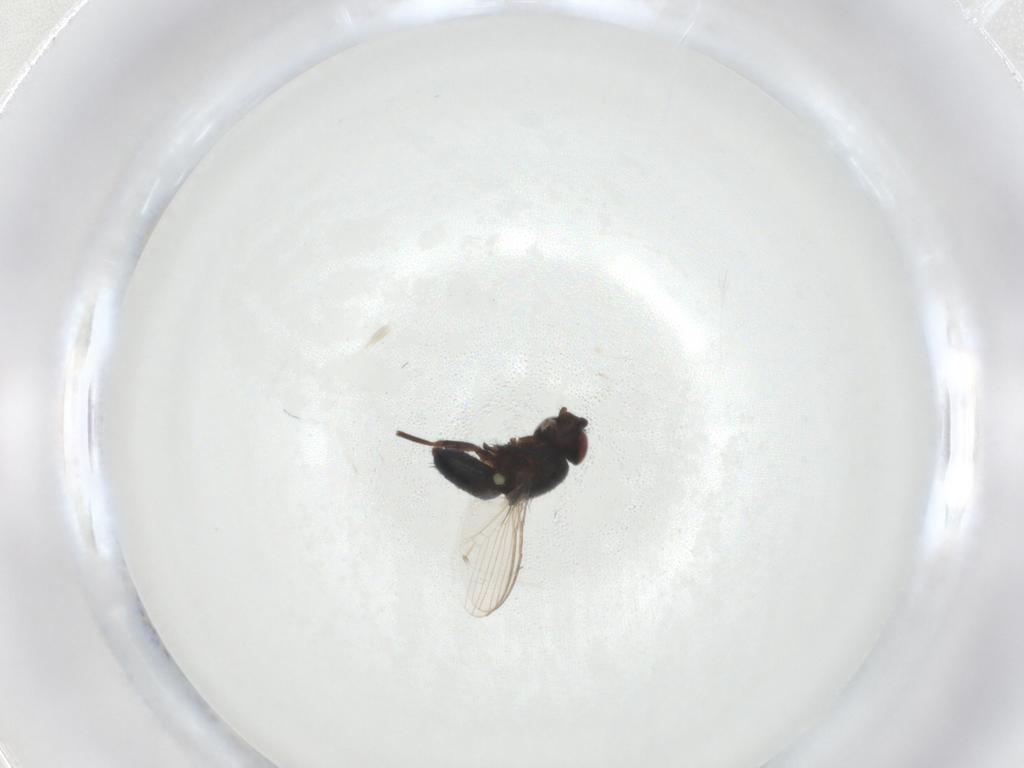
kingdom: Animalia
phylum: Arthropoda
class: Insecta
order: Diptera
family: Milichiidae
